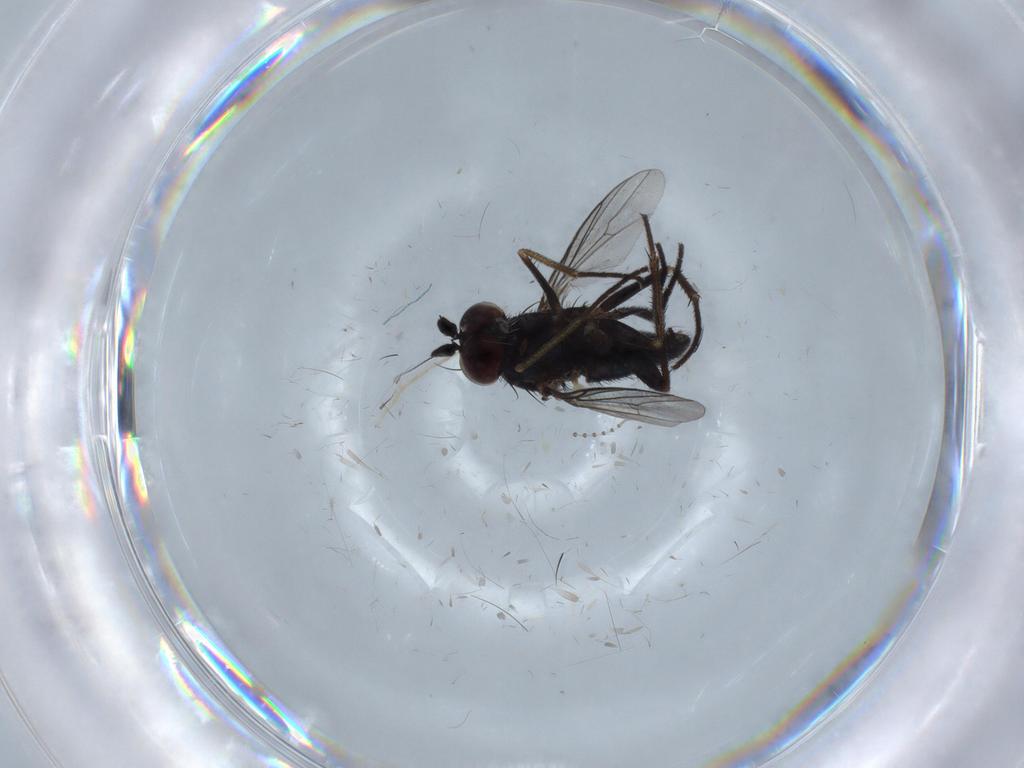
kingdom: Animalia
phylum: Arthropoda
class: Insecta
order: Diptera
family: Dolichopodidae
